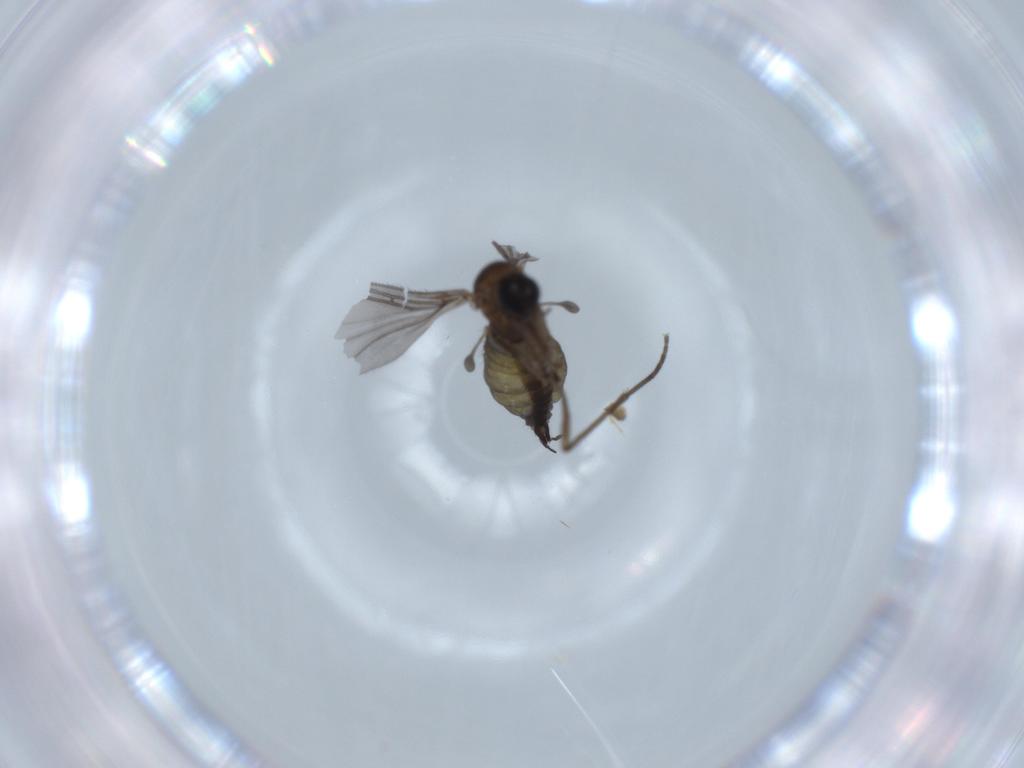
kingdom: Animalia
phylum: Arthropoda
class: Insecta
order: Diptera
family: Sciaridae
